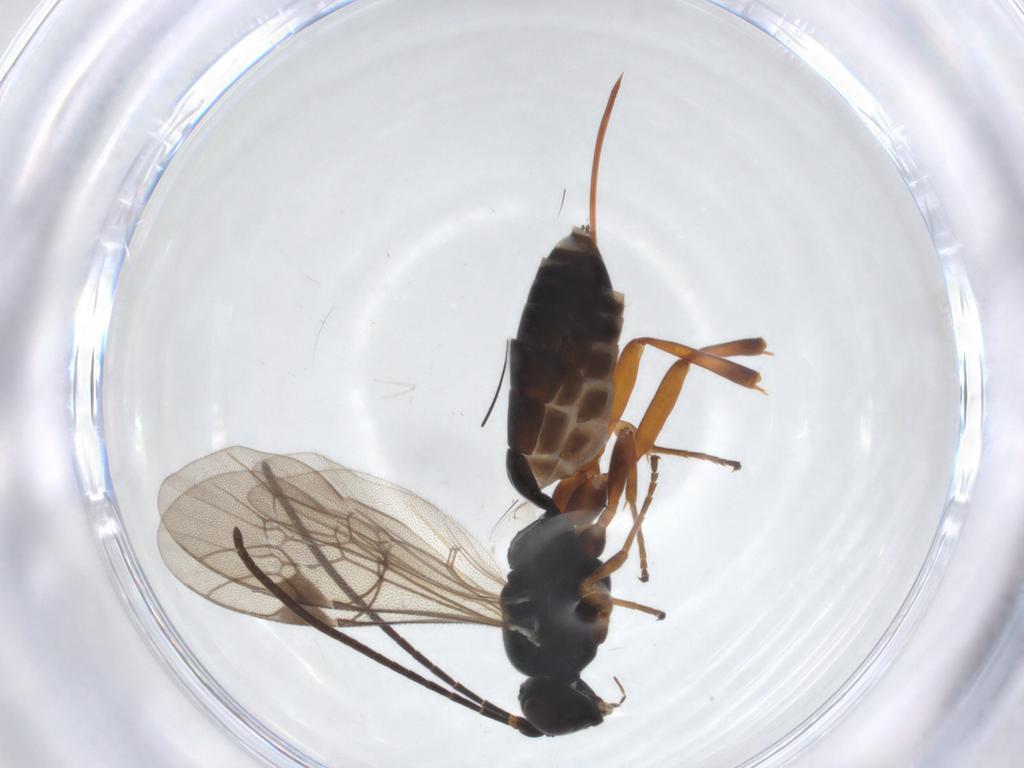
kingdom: Animalia
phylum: Arthropoda
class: Insecta
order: Hymenoptera
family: Ichneumonidae
